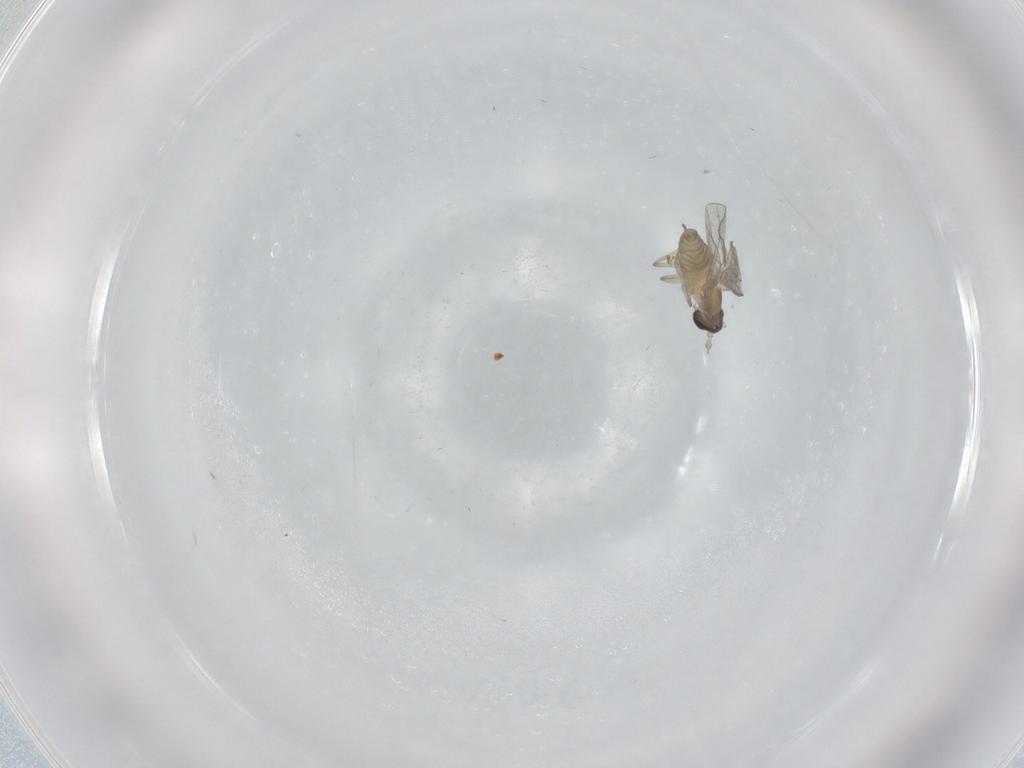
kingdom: Animalia
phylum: Arthropoda
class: Insecta
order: Diptera
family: Cecidomyiidae
